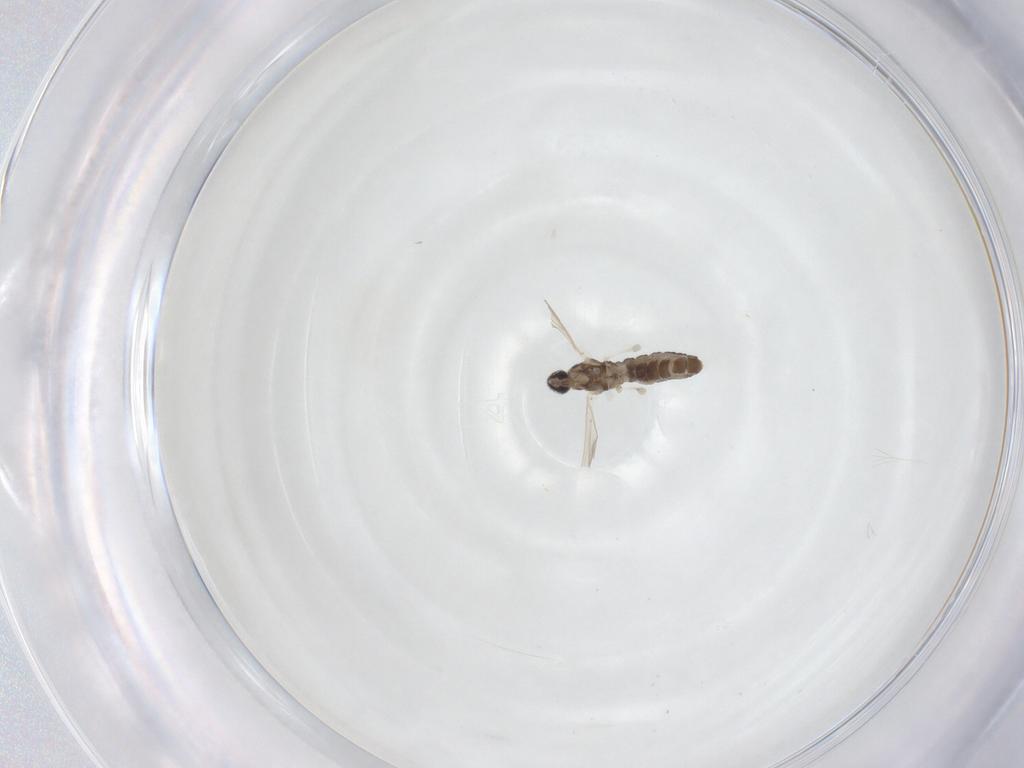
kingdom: Animalia
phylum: Arthropoda
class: Insecta
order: Diptera
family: Cecidomyiidae
